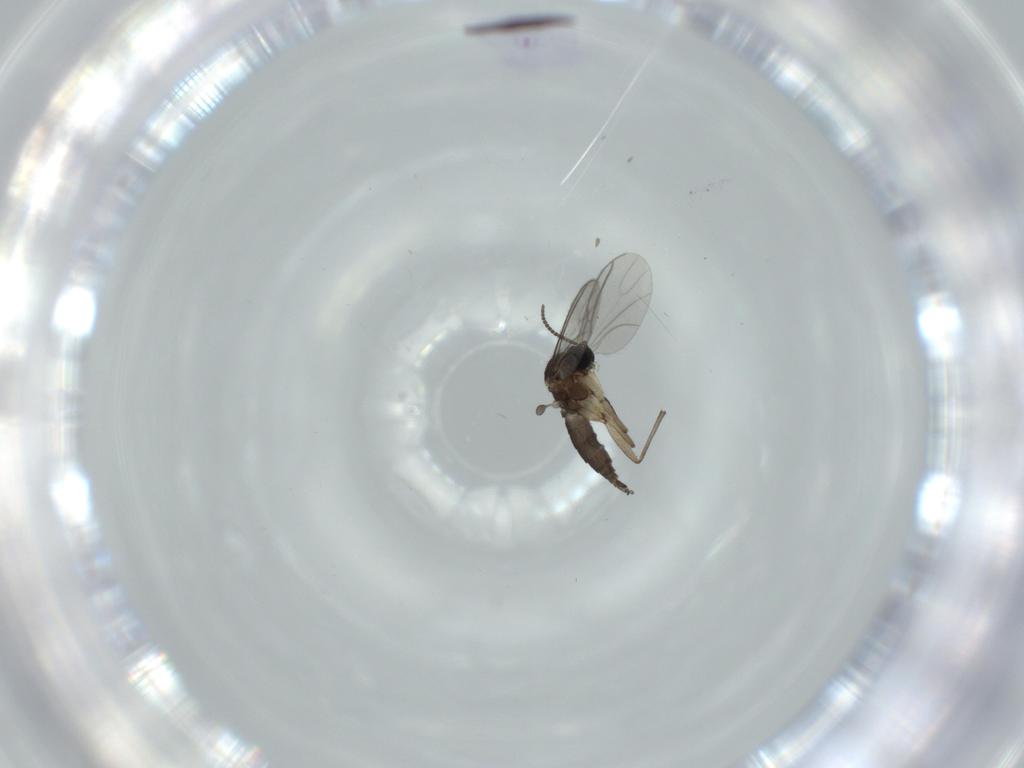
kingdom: Animalia
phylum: Arthropoda
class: Insecta
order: Diptera
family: Sciaridae
